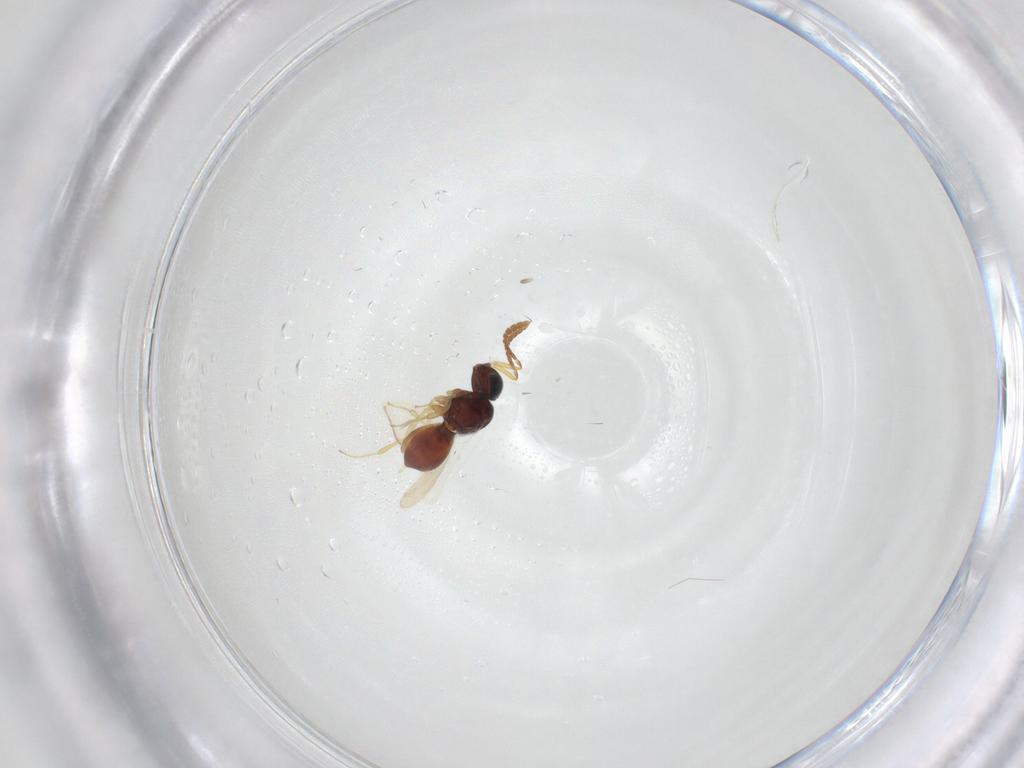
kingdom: Animalia
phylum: Arthropoda
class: Insecta
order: Hymenoptera
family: Scelionidae
